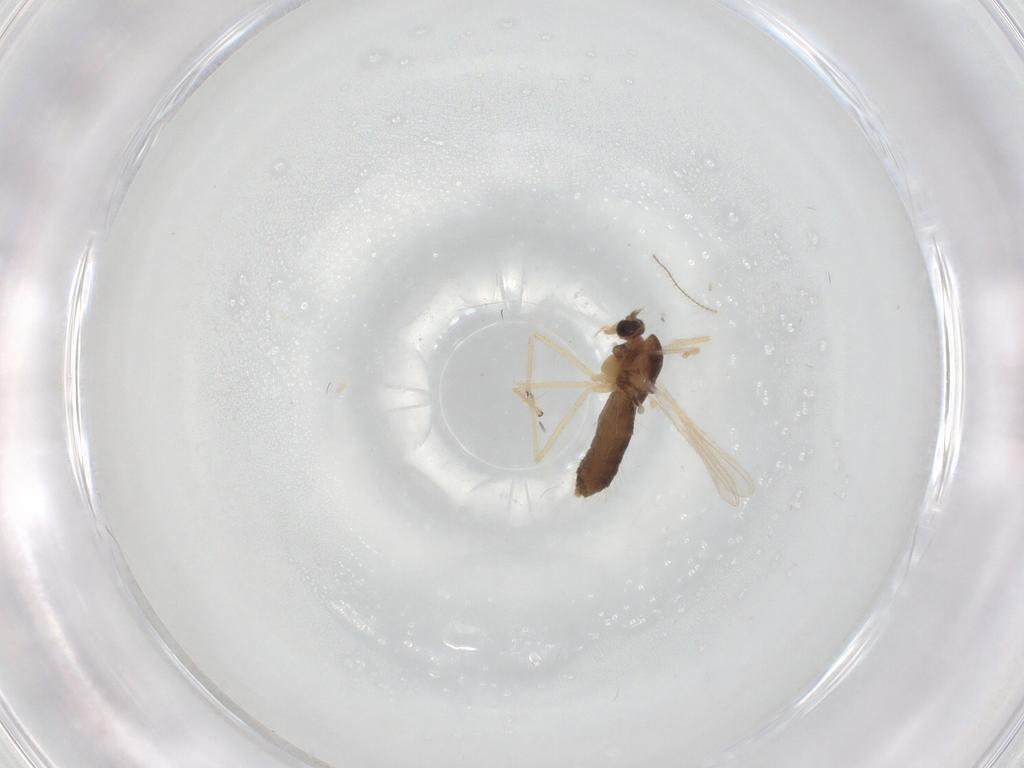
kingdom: Animalia
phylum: Arthropoda
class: Insecta
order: Diptera
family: Chironomidae
